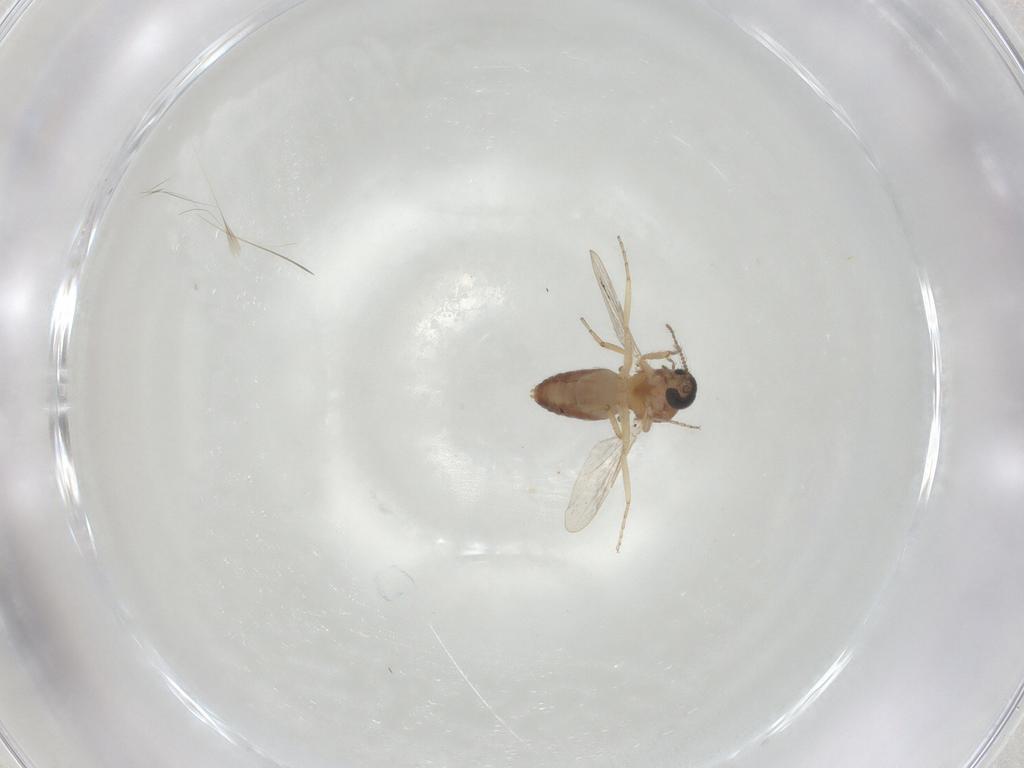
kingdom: Animalia
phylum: Arthropoda
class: Insecta
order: Diptera
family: Ceratopogonidae
